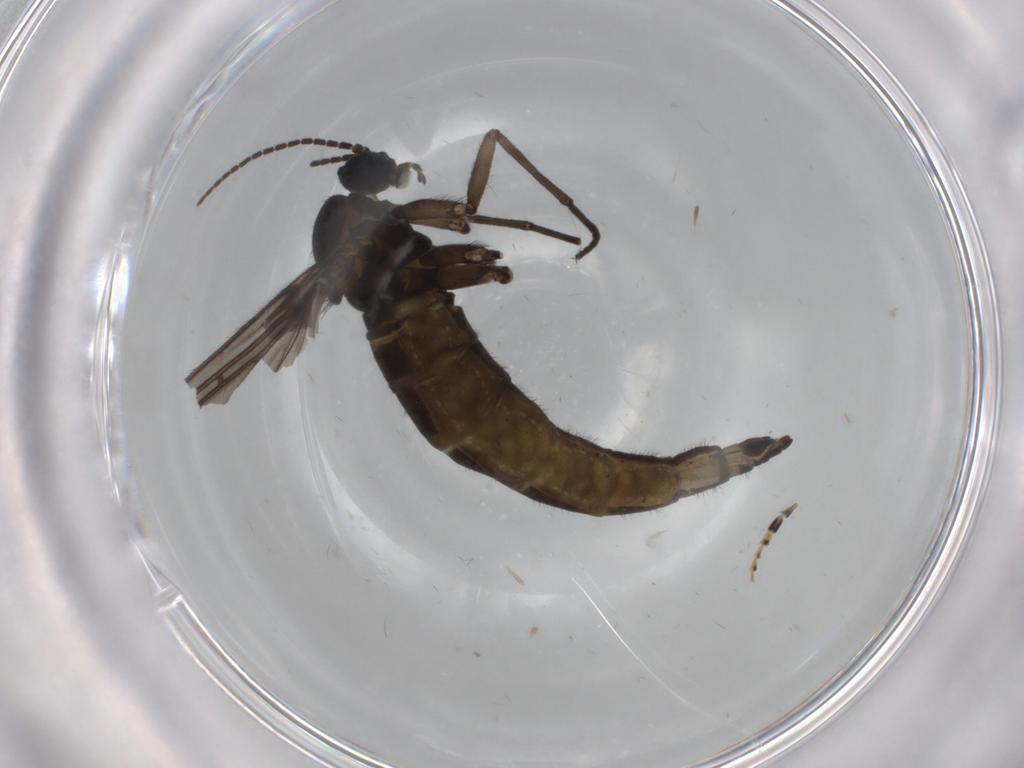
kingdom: Animalia
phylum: Arthropoda
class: Insecta
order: Diptera
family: Sciaridae
